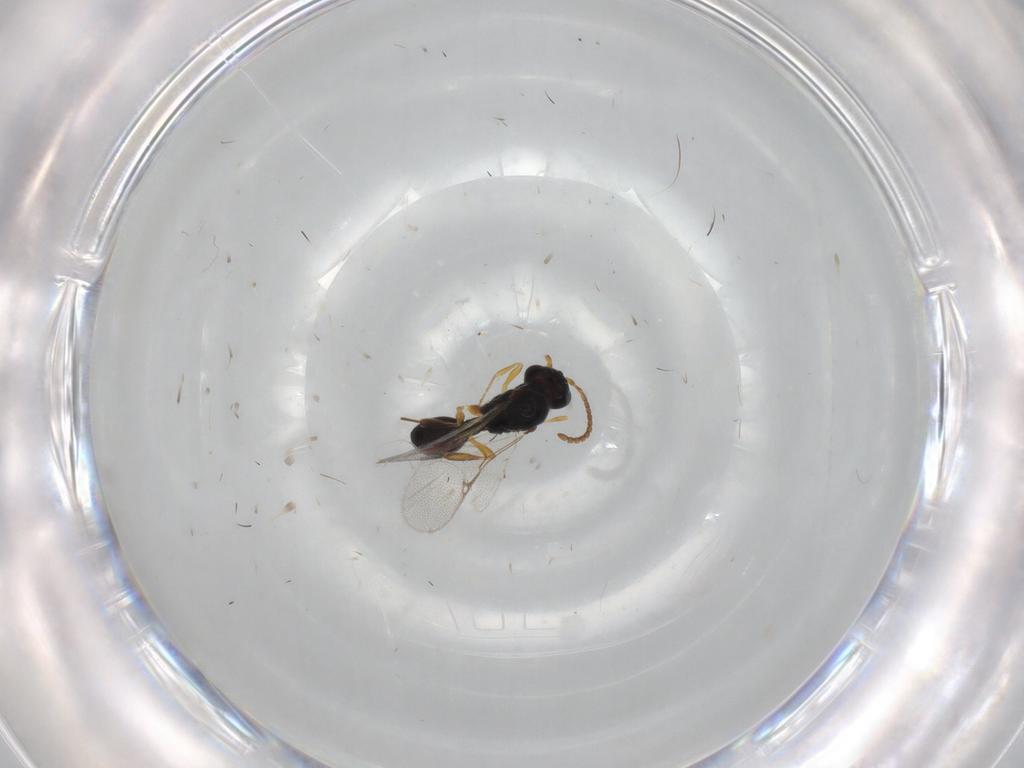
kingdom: Animalia
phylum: Arthropoda
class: Insecta
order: Hymenoptera
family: Diapriidae
